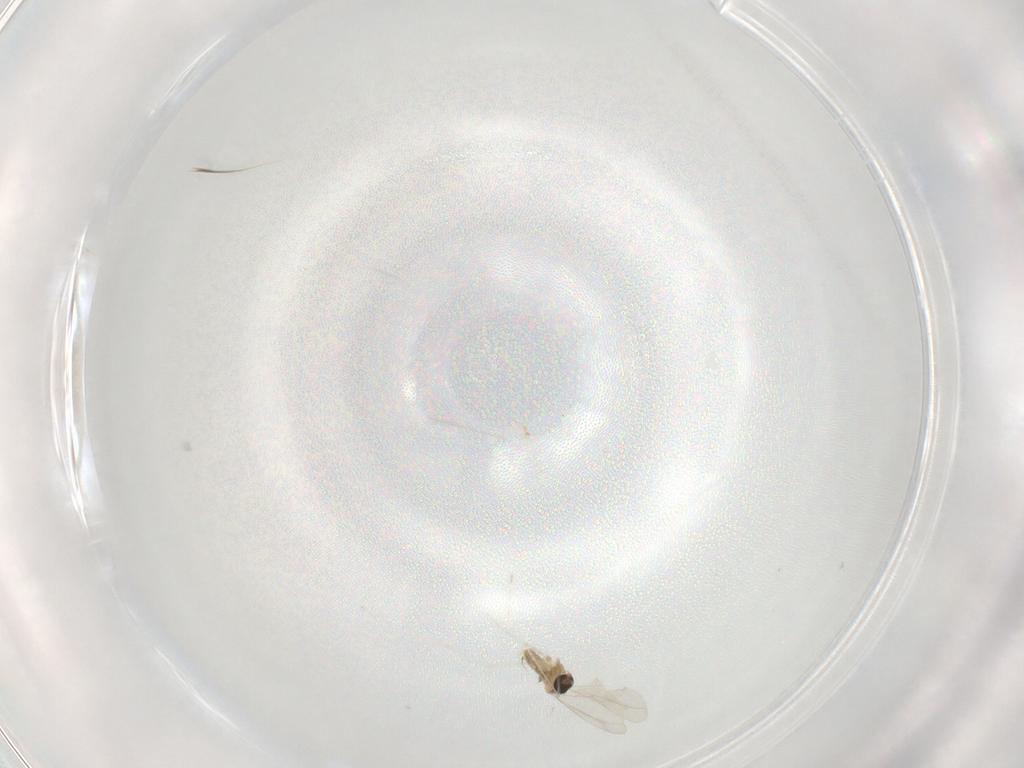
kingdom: Animalia
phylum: Arthropoda
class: Insecta
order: Diptera
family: Cecidomyiidae
